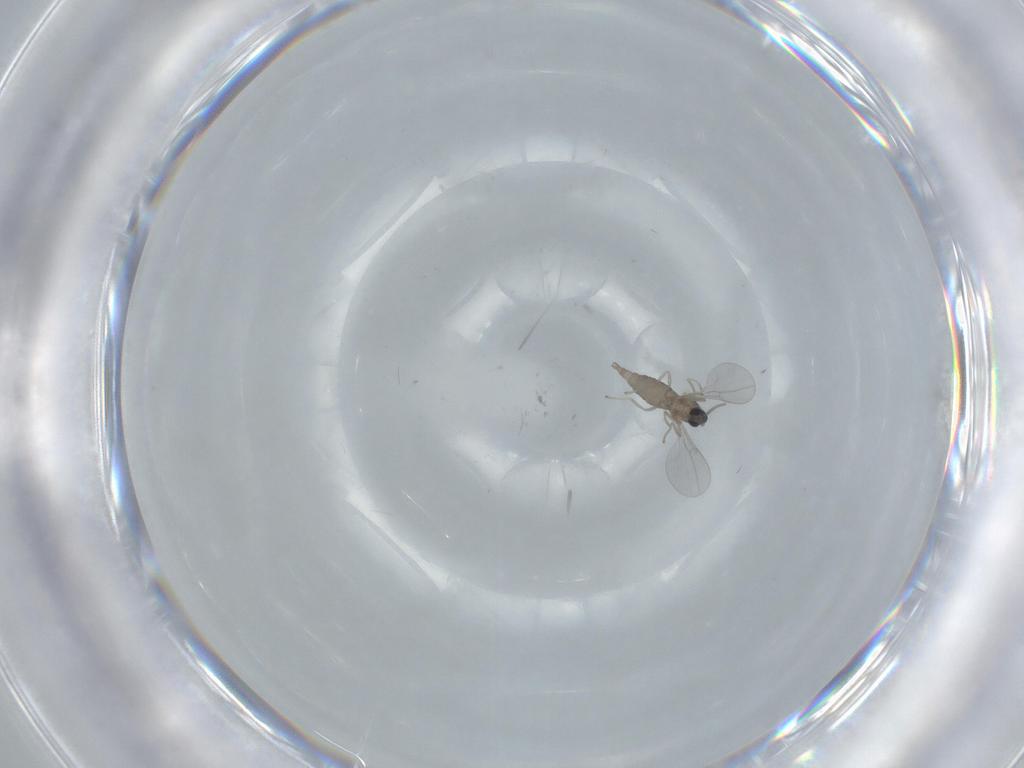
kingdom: Animalia
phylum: Arthropoda
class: Insecta
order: Diptera
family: Cecidomyiidae
